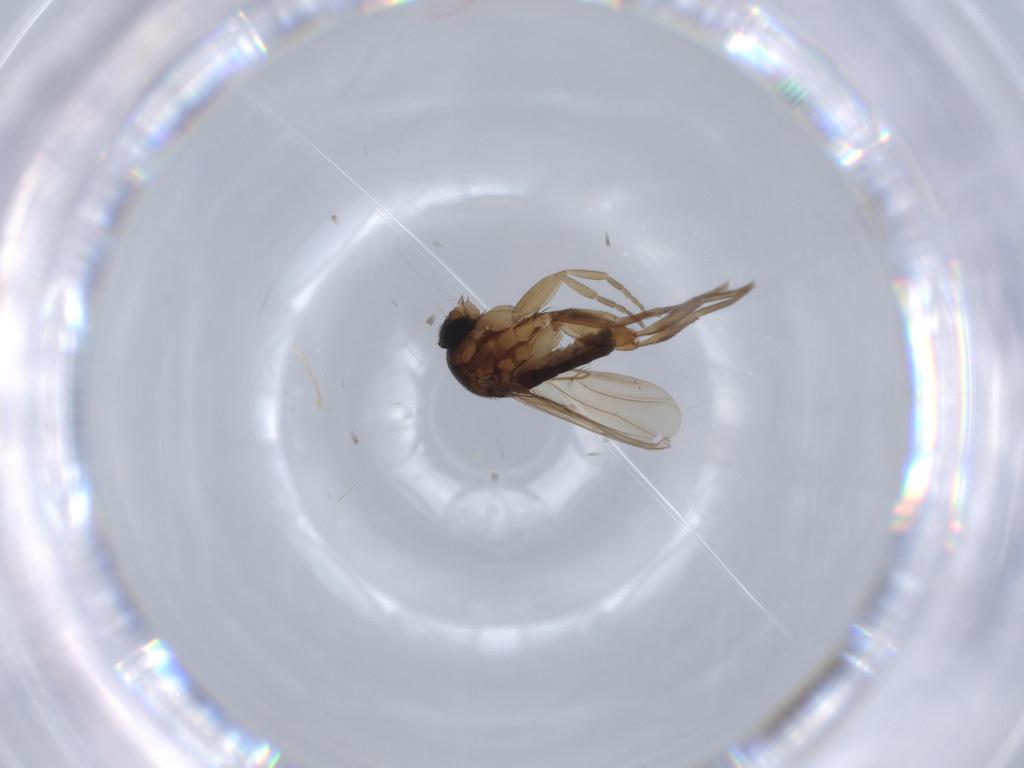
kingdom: Animalia
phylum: Arthropoda
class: Insecta
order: Diptera
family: Phoridae
